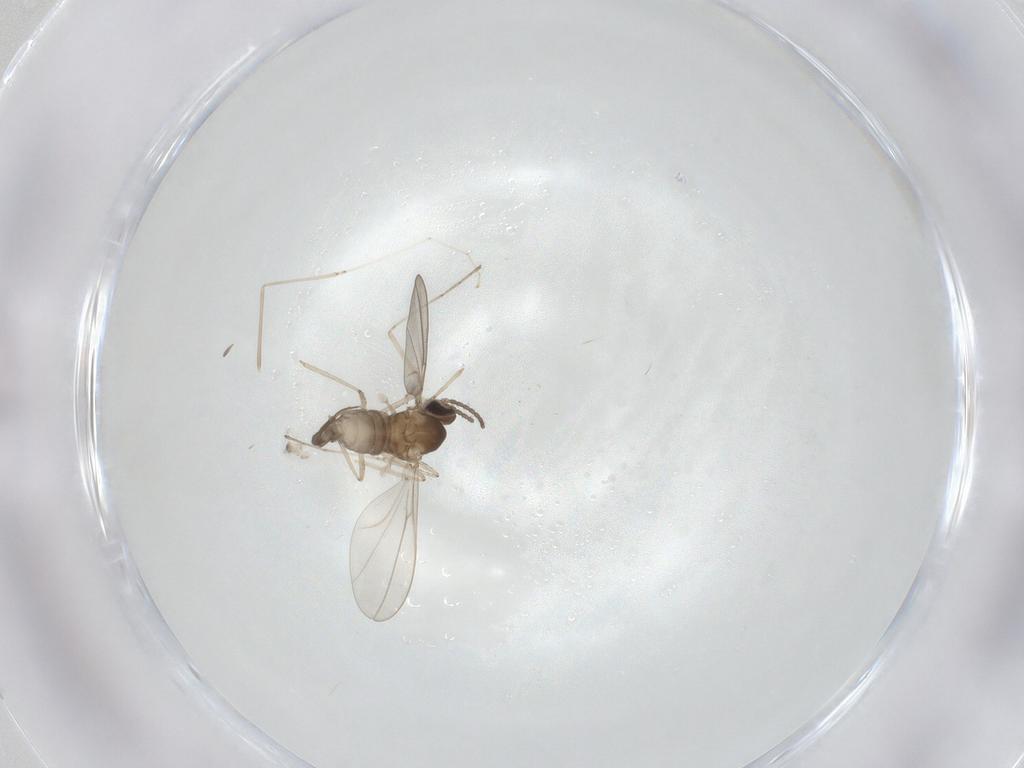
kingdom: Animalia
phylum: Arthropoda
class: Insecta
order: Diptera
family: Cecidomyiidae
